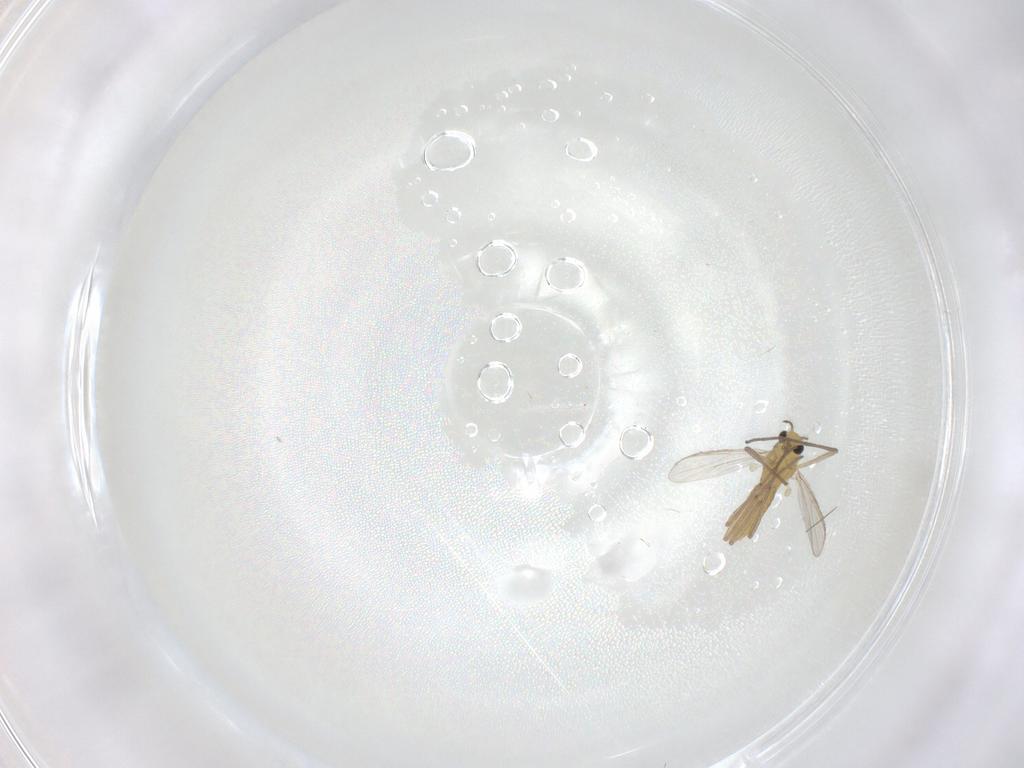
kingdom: Animalia
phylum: Arthropoda
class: Insecta
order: Diptera
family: Chironomidae
